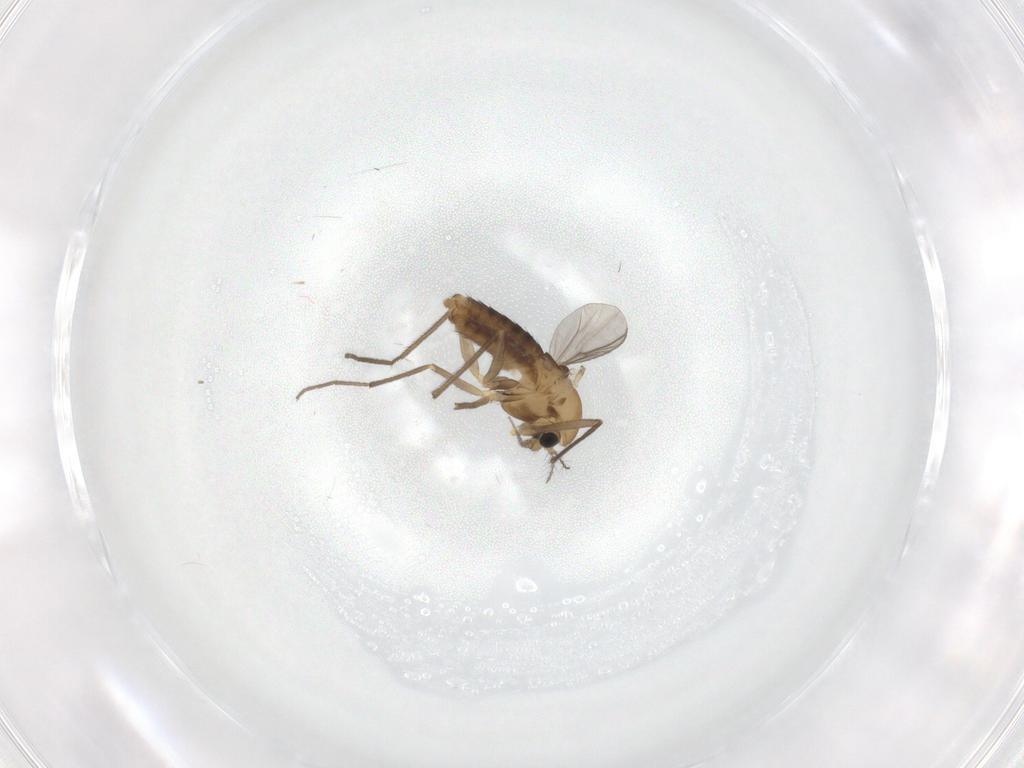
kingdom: Animalia
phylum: Arthropoda
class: Insecta
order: Diptera
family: Chironomidae
